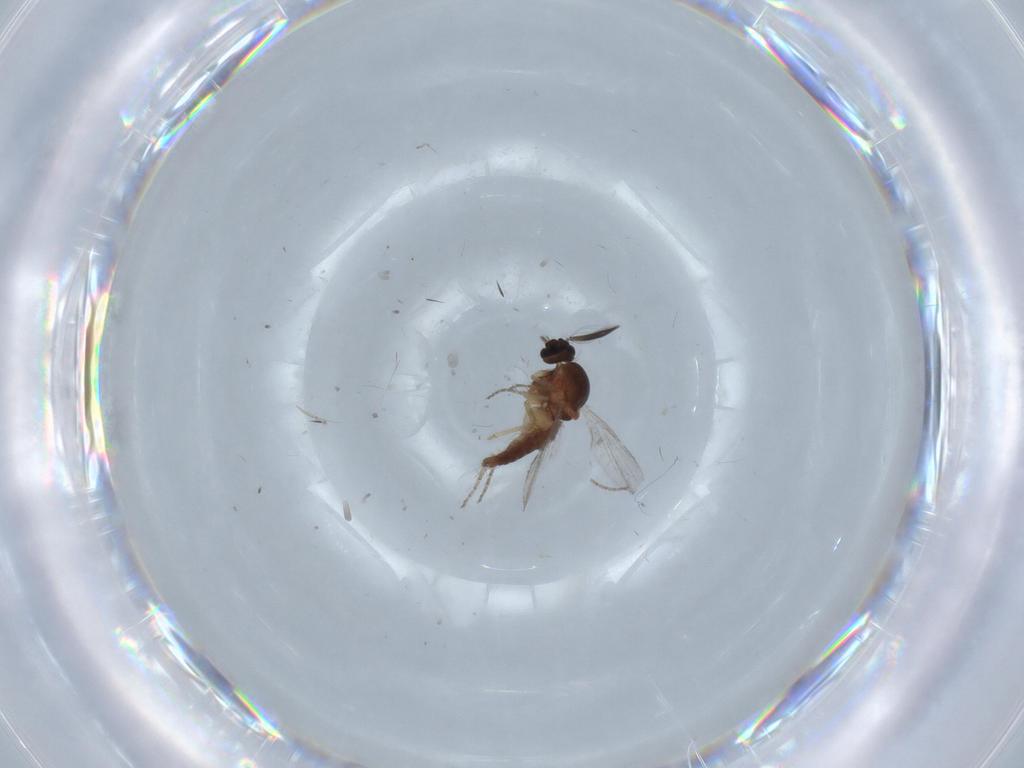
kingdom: Animalia
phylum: Arthropoda
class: Insecta
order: Diptera
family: Ceratopogonidae
